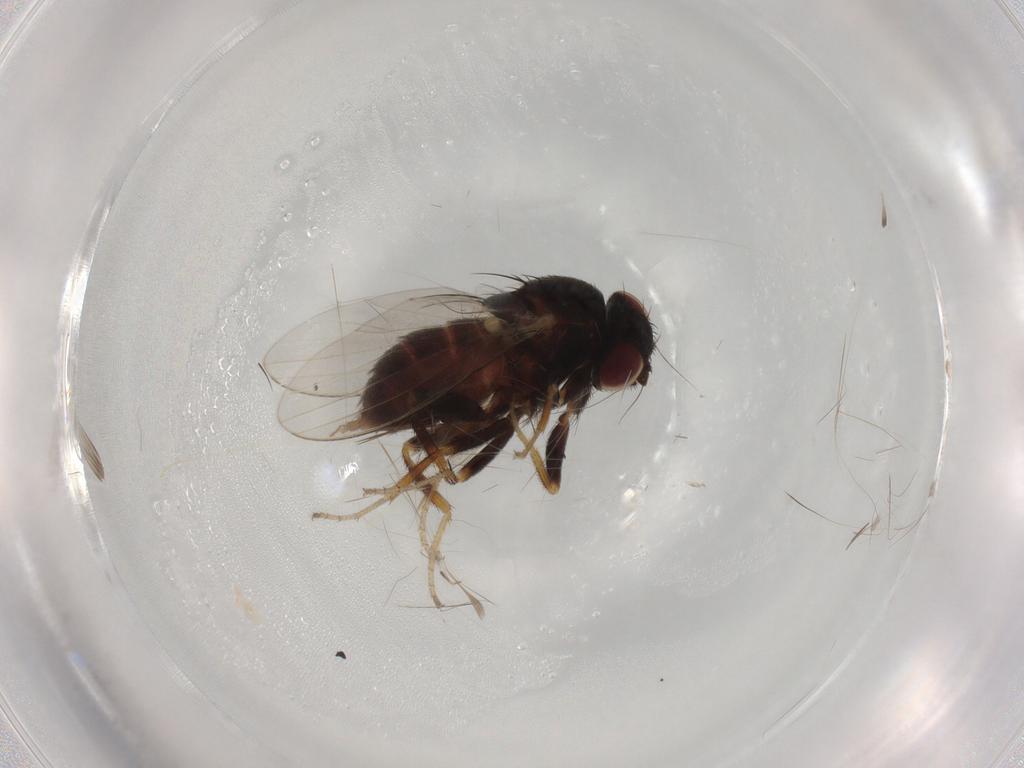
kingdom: Animalia
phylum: Arthropoda
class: Insecta
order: Diptera
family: Milichiidae
